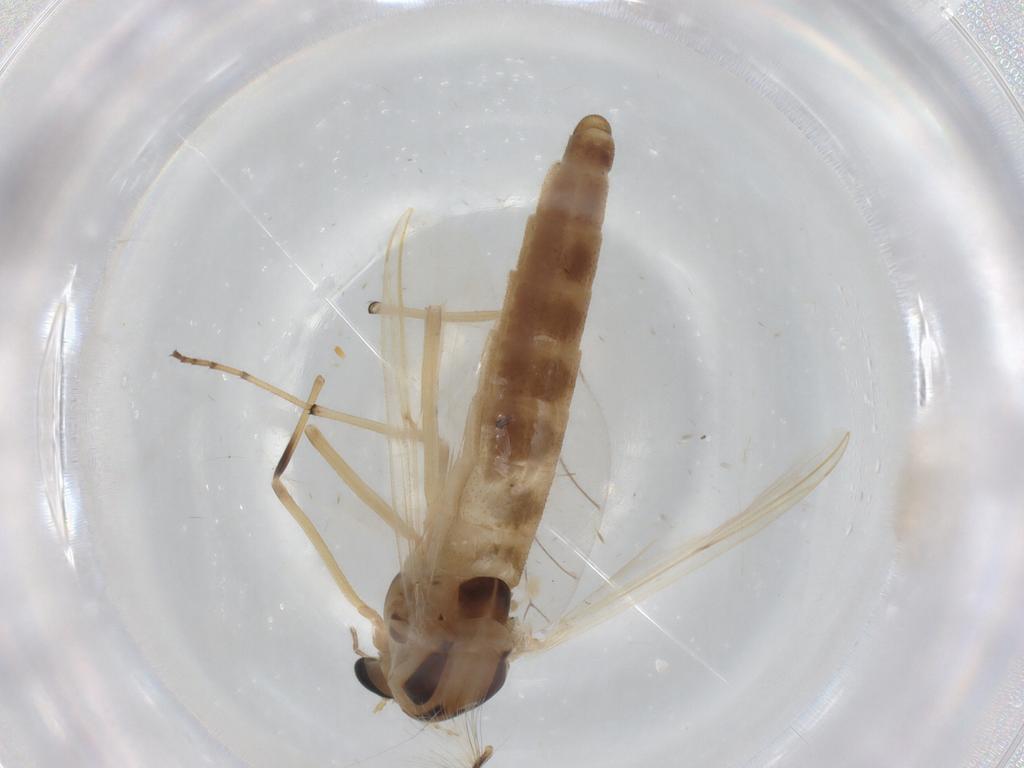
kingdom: Animalia
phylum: Arthropoda
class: Insecta
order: Diptera
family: Chironomidae
